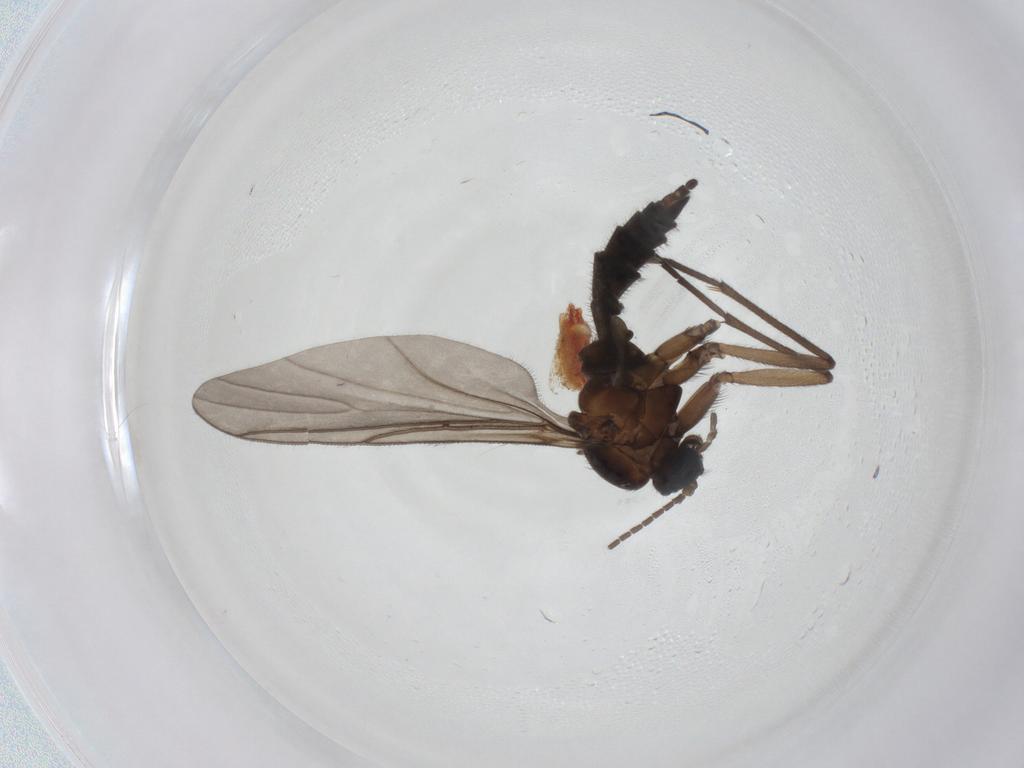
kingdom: Animalia
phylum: Arthropoda
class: Insecta
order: Diptera
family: Sciaridae
